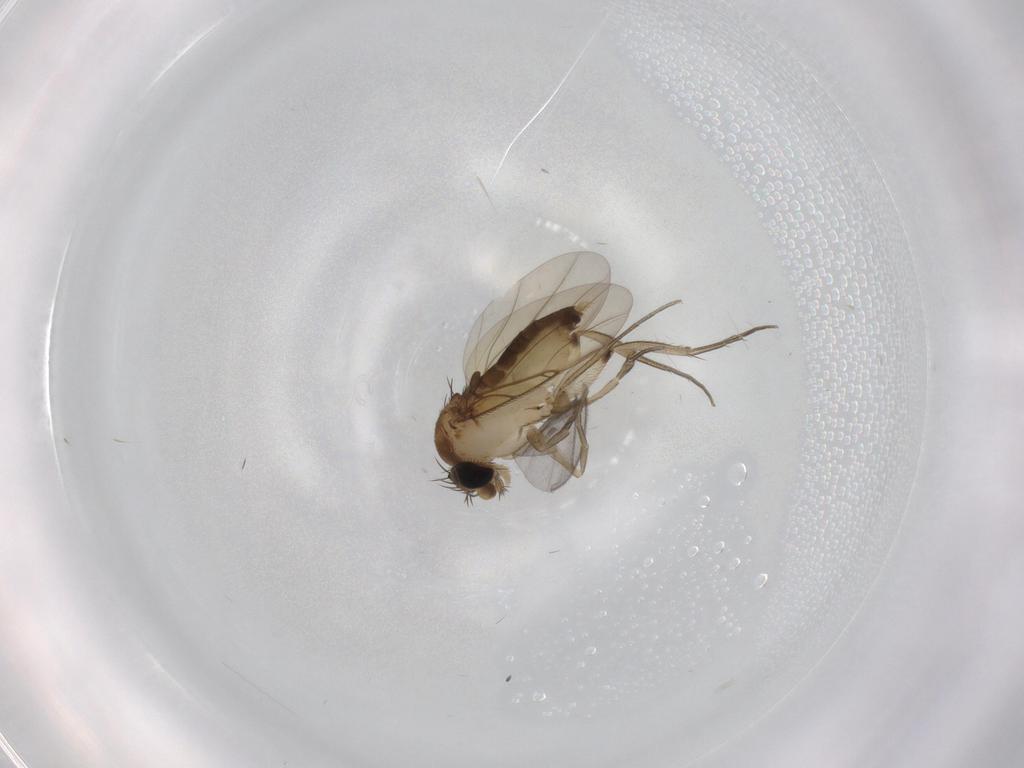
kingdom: Animalia
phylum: Arthropoda
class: Insecta
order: Diptera
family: Phoridae
